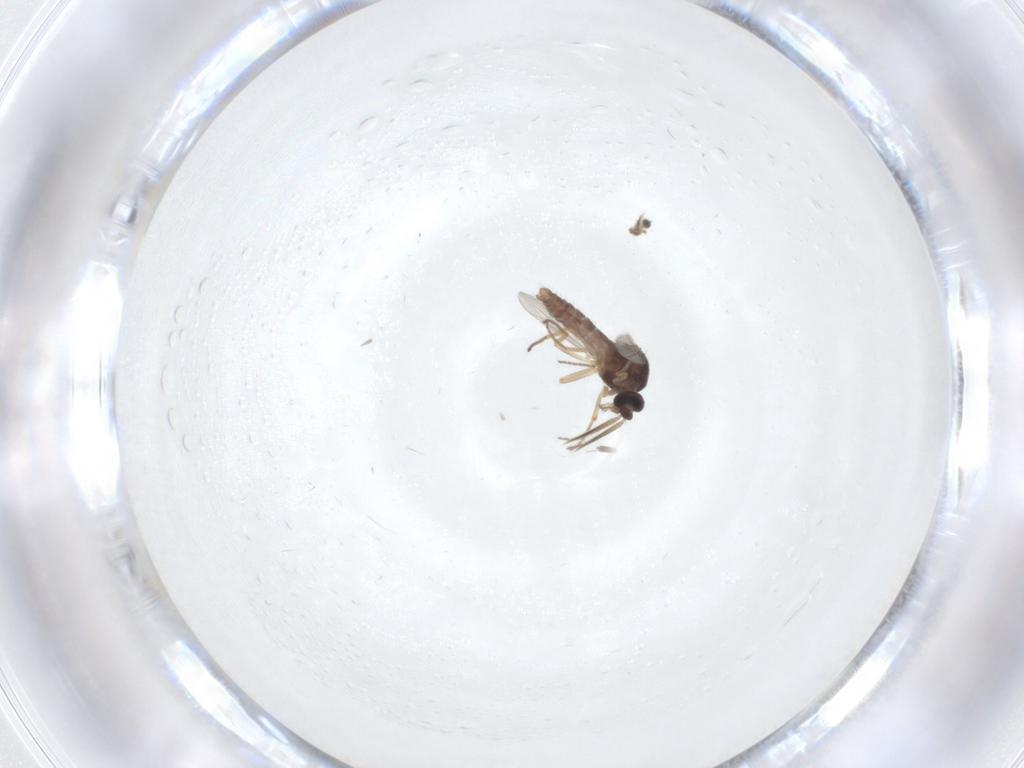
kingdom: Animalia
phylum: Arthropoda
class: Insecta
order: Diptera
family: Ceratopogonidae
